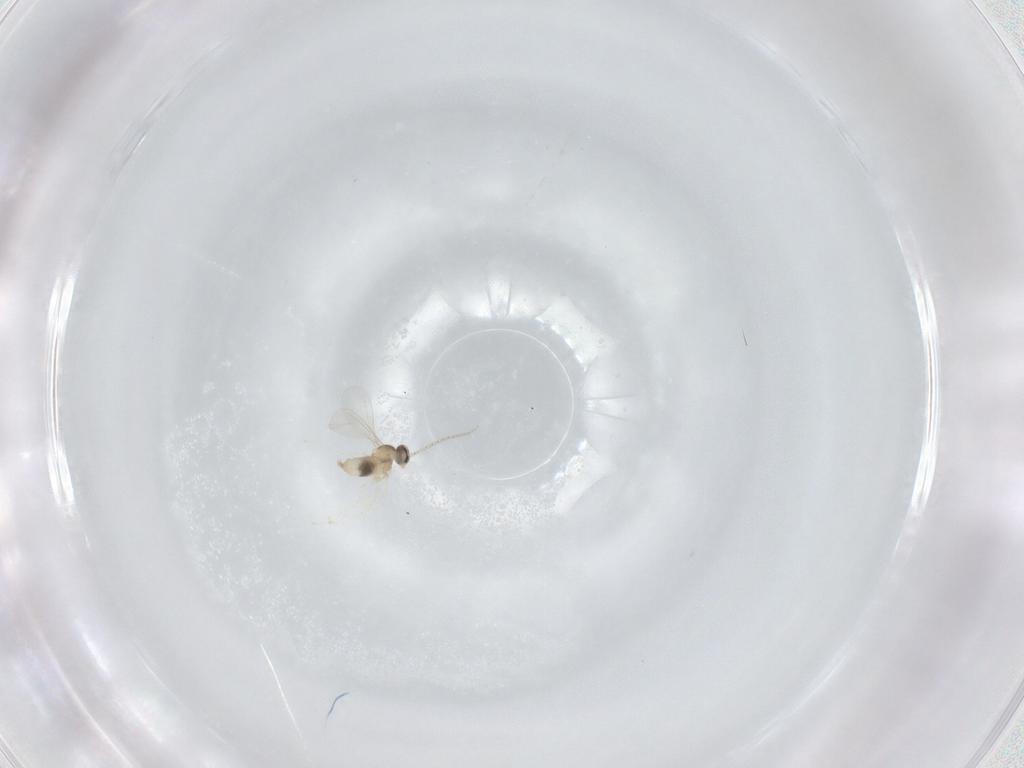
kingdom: Animalia
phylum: Arthropoda
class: Insecta
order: Diptera
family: Cecidomyiidae
